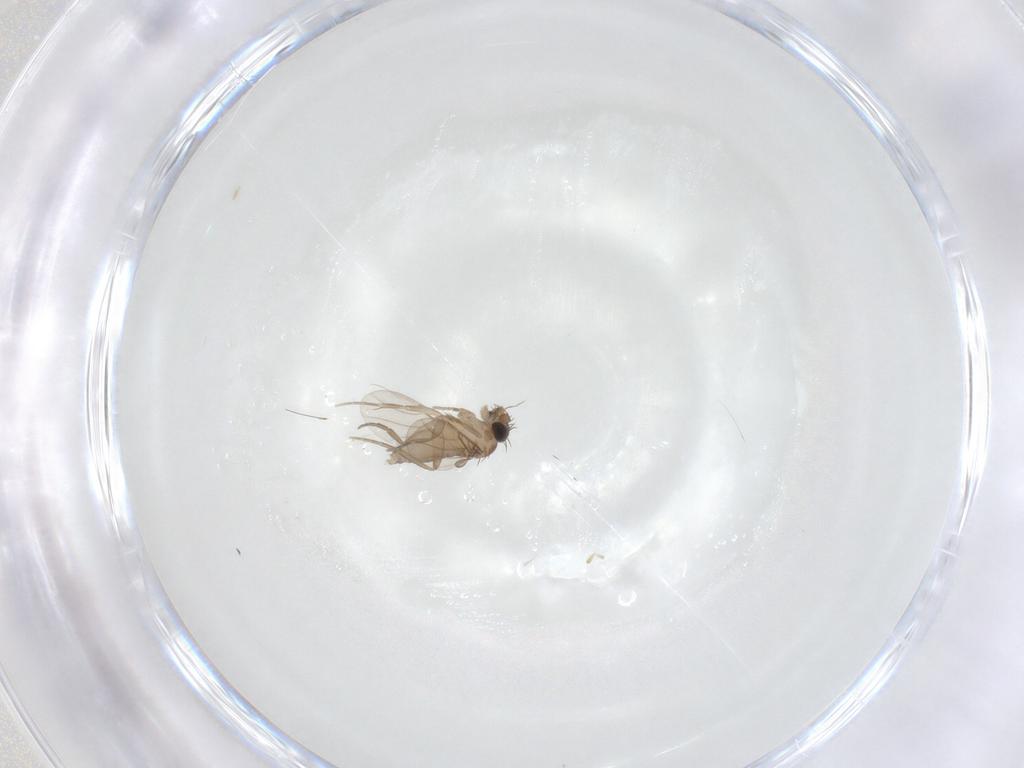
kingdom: Animalia
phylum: Arthropoda
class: Insecta
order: Diptera
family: Phoridae
